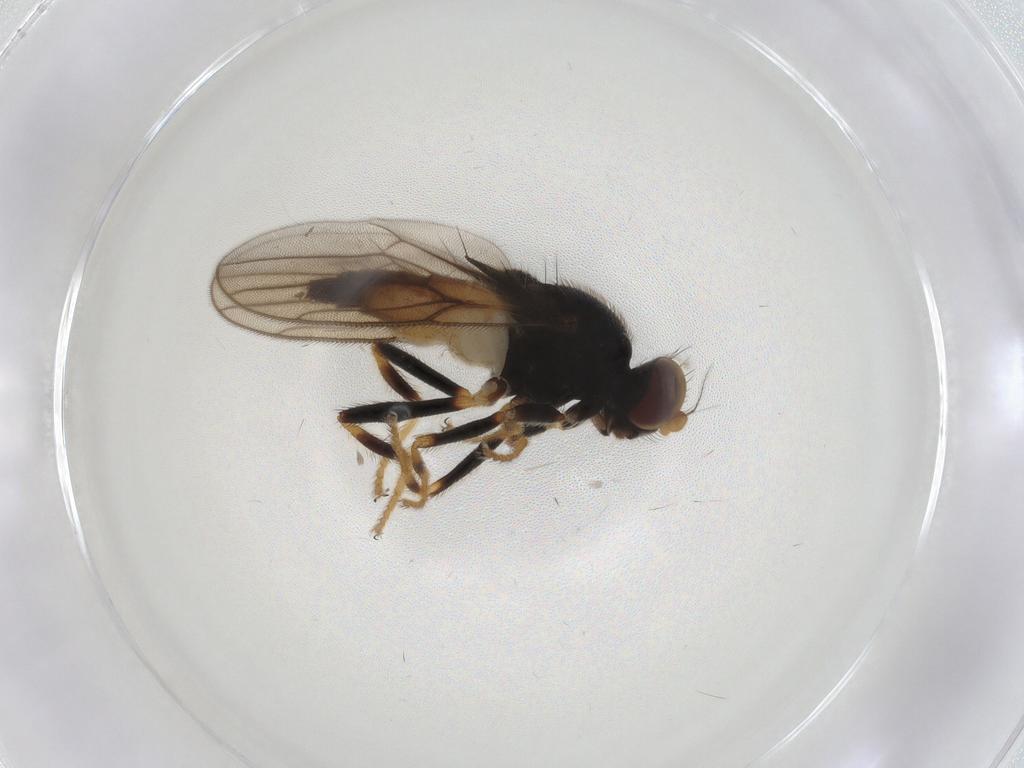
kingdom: Animalia
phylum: Arthropoda
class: Insecta
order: Diptera
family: Chloropidae
